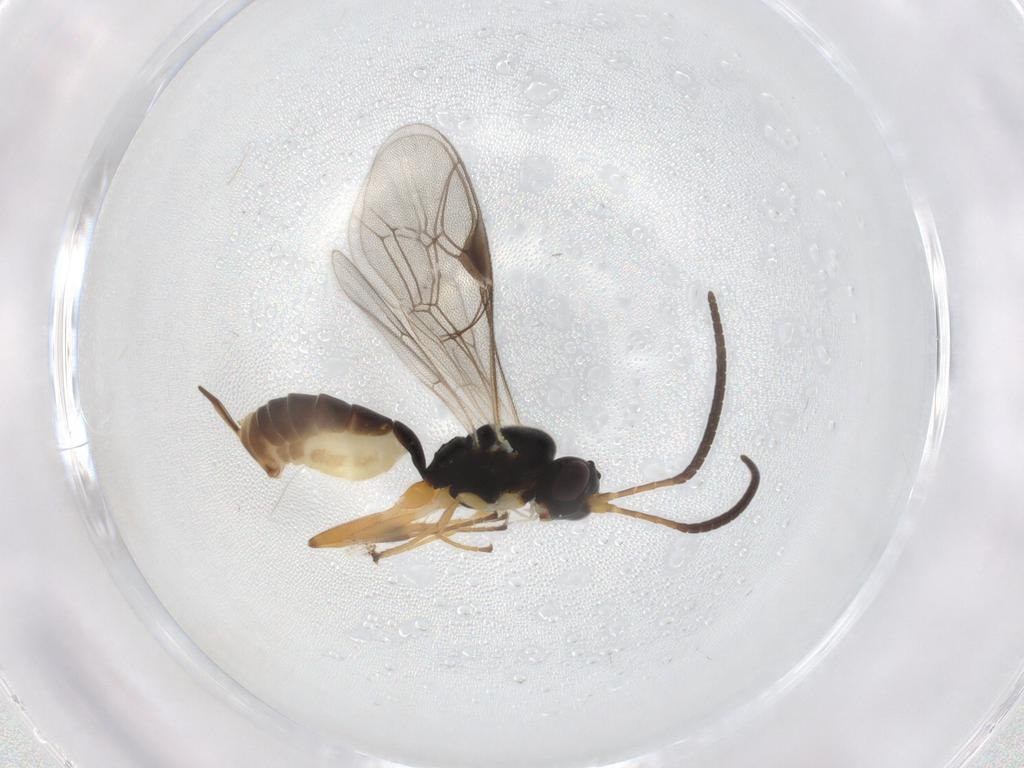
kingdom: Animalia
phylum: Arthropoda
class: Insecta
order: Hymenoptera
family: Ichneumonidae
